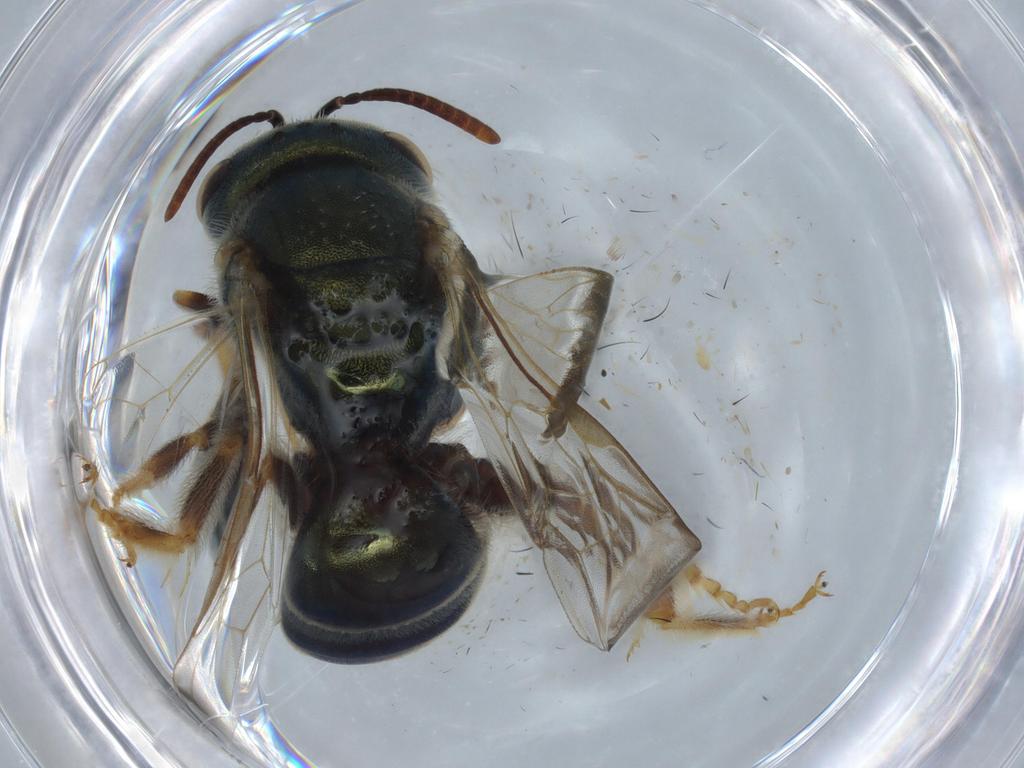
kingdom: Animalia
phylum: Arthropoda
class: Insecta
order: Hymenoptera
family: Halictidae
